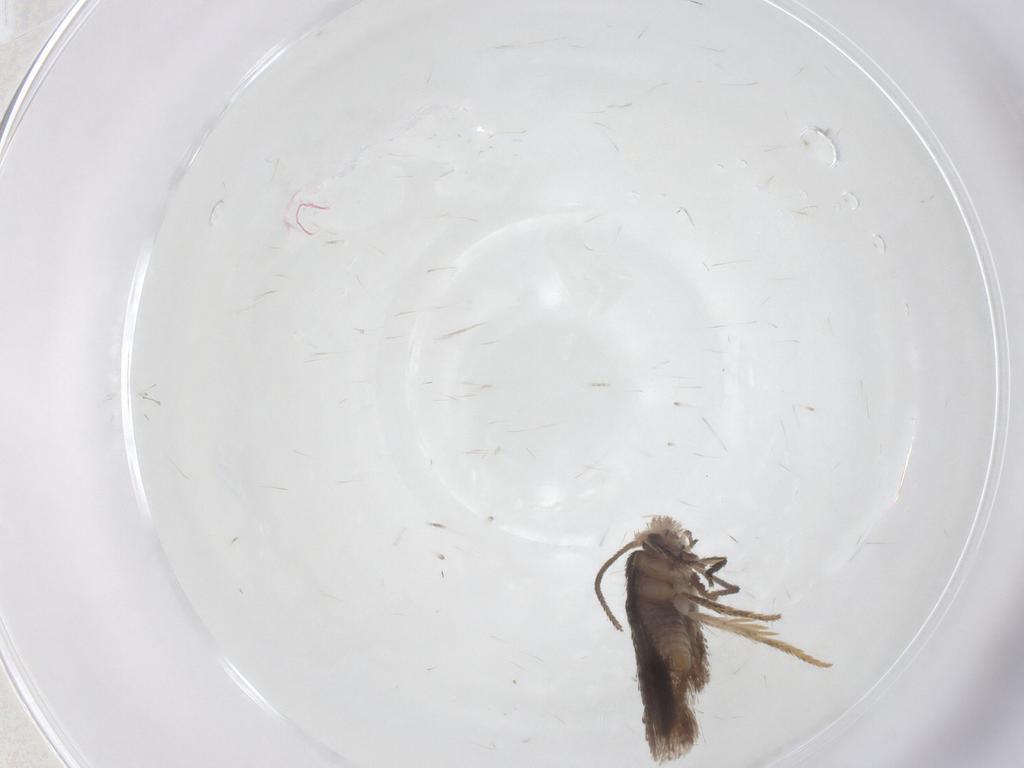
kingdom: Animalia
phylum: Arthropoda
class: Insecta
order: Lepidoptera
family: Nepticulidae
